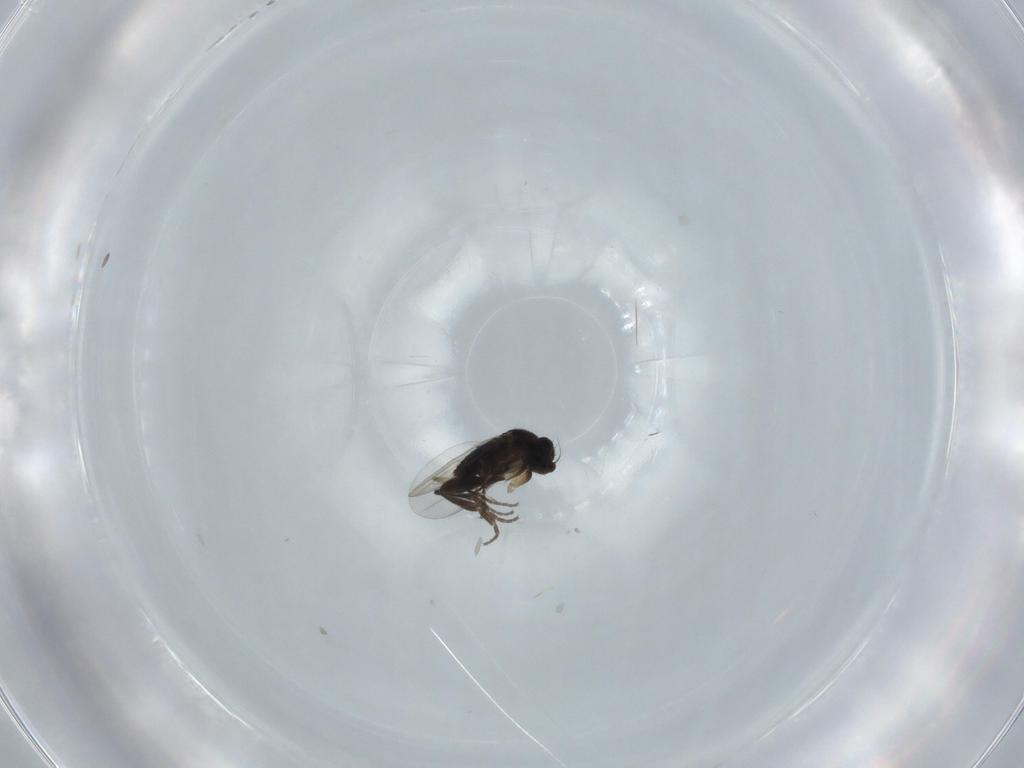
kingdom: Animalia
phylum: Arthropoda
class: Insecta
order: Diptera
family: Phoridae
